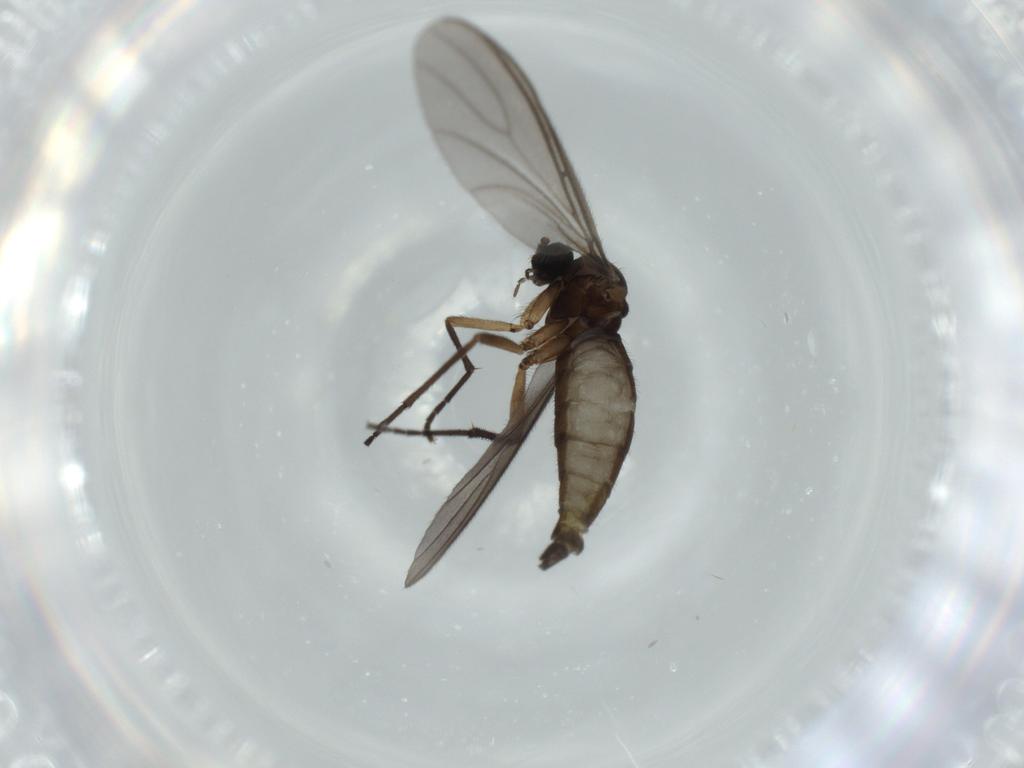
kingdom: Animalia
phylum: Arthropoda
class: Insecta
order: Diptera
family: Sciaridae
